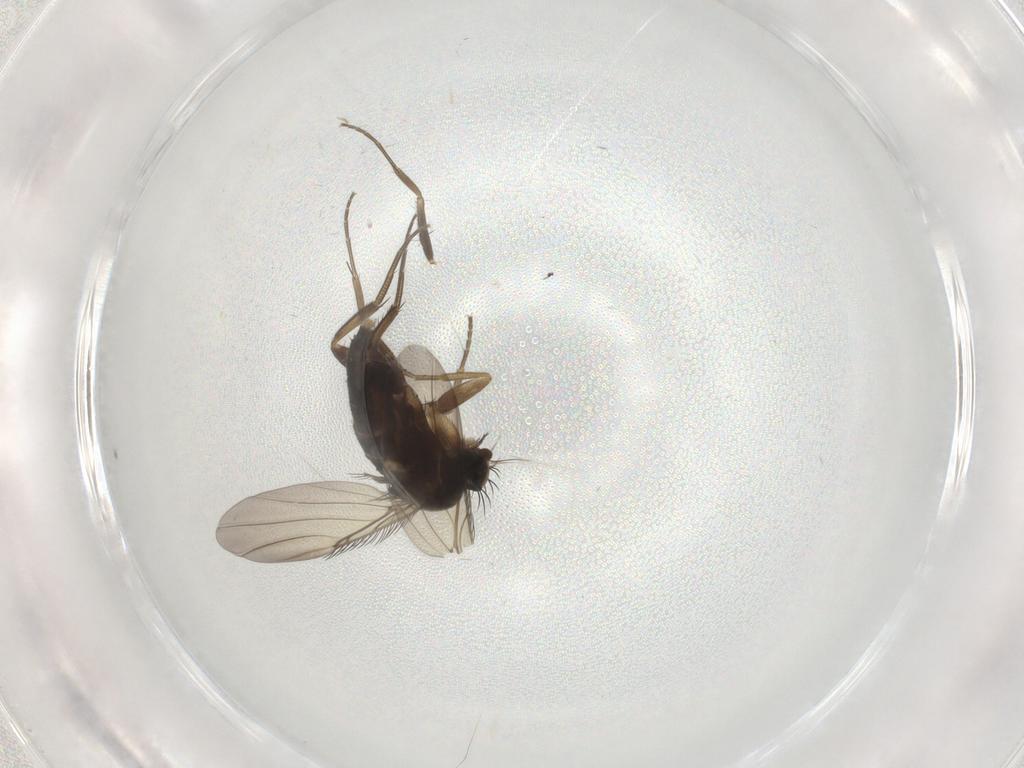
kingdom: Animalia
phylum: Arthropoda
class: Insecta
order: Diptera
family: Phoridae
